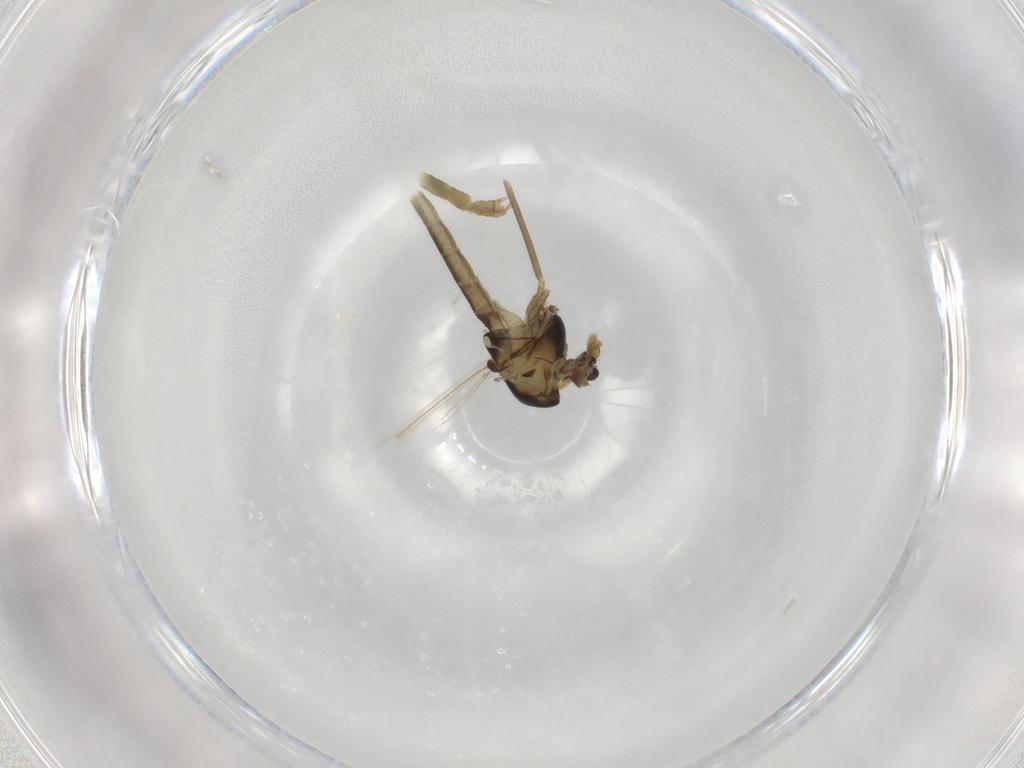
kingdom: Animalia
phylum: Arthropoda
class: Insecta
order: Diptera
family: Chironomidae
